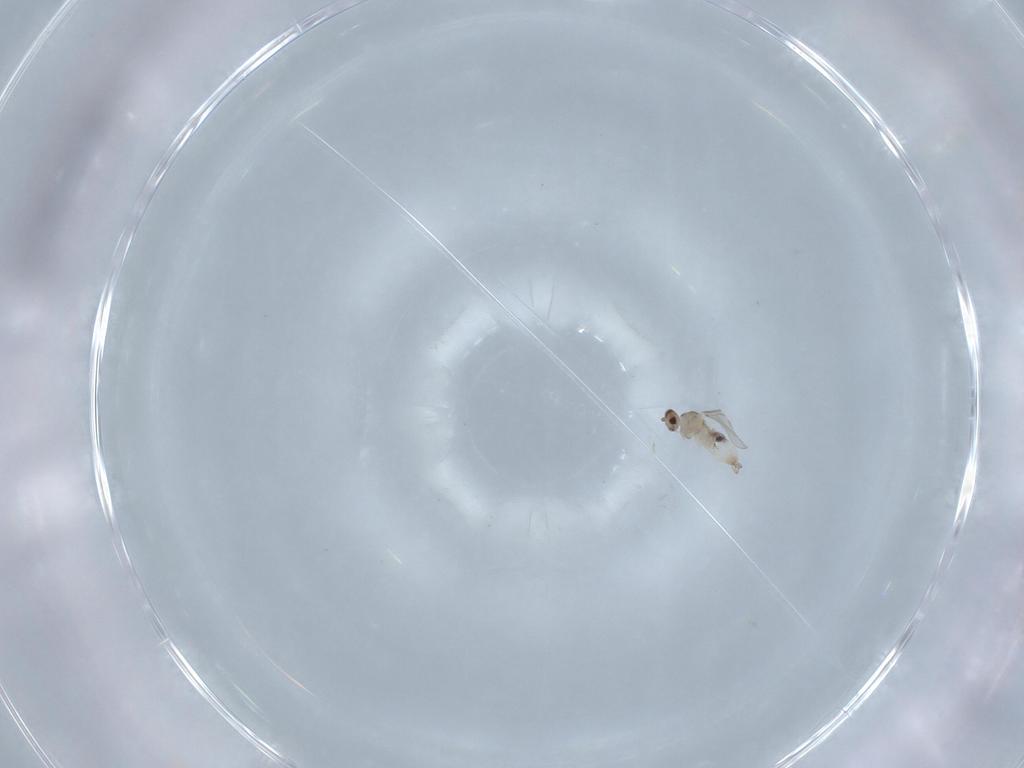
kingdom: Animalia
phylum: Arthropoda
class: Insecta
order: Diptera
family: Cecidomyiidae
